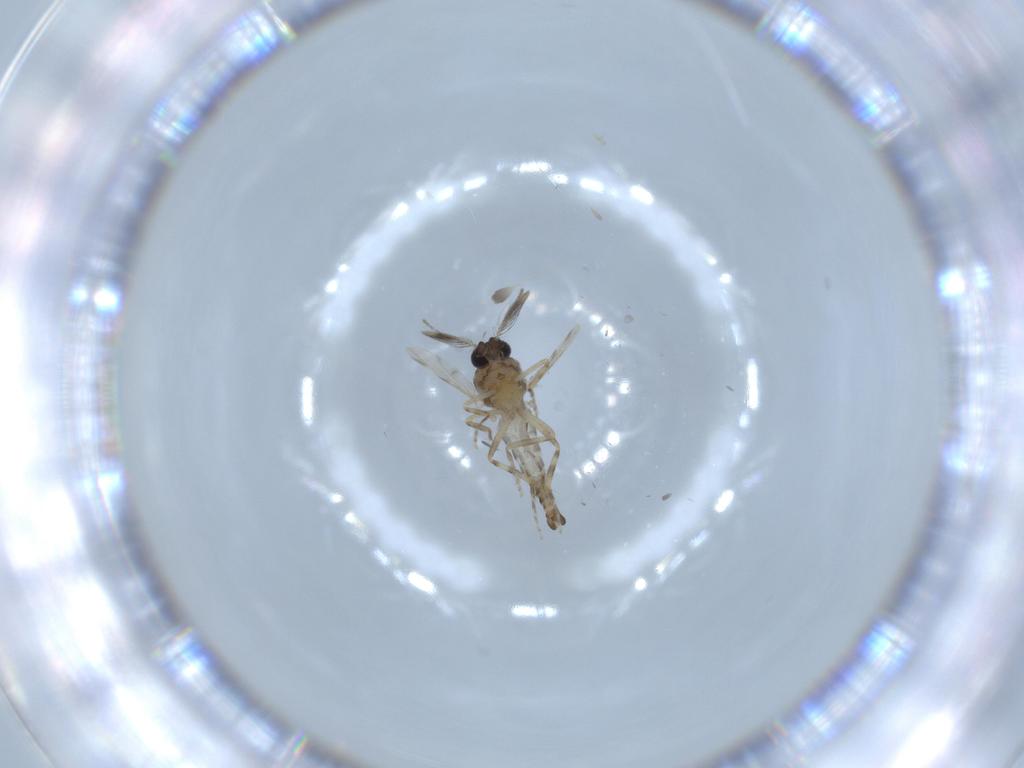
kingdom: Animalia
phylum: Arthropoda
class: Insecta
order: Diptera
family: Ceratopogonidae
